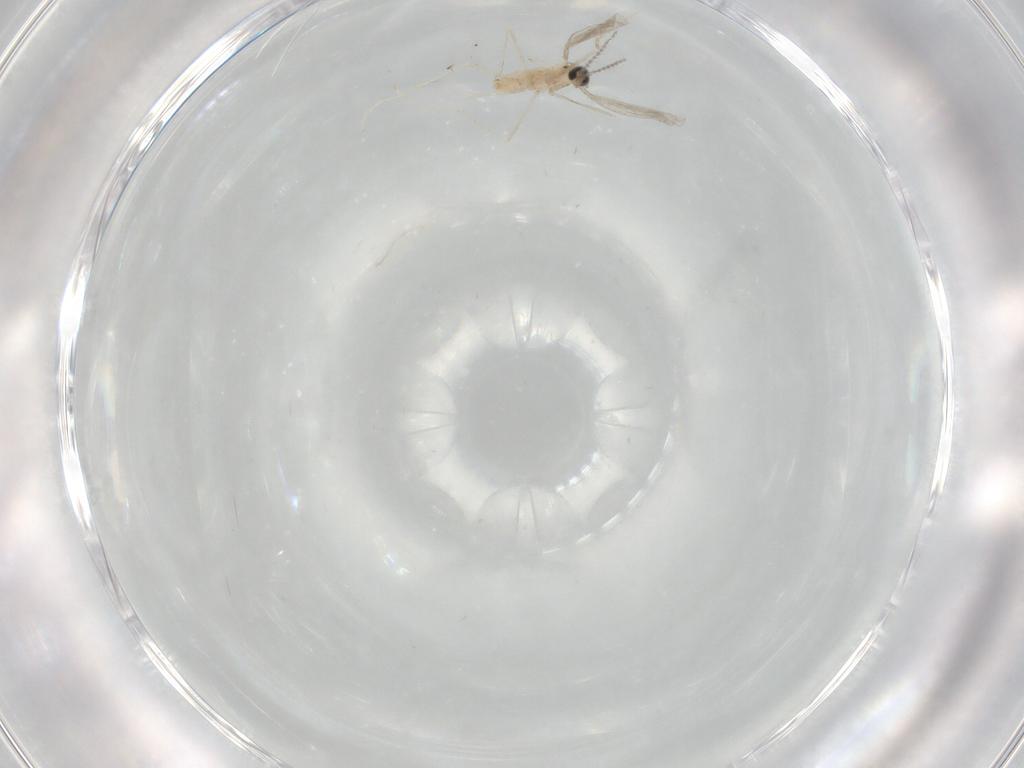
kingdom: Animalia
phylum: Arthropoda
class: Insecta
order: Diptera
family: Cecidomyiidae
